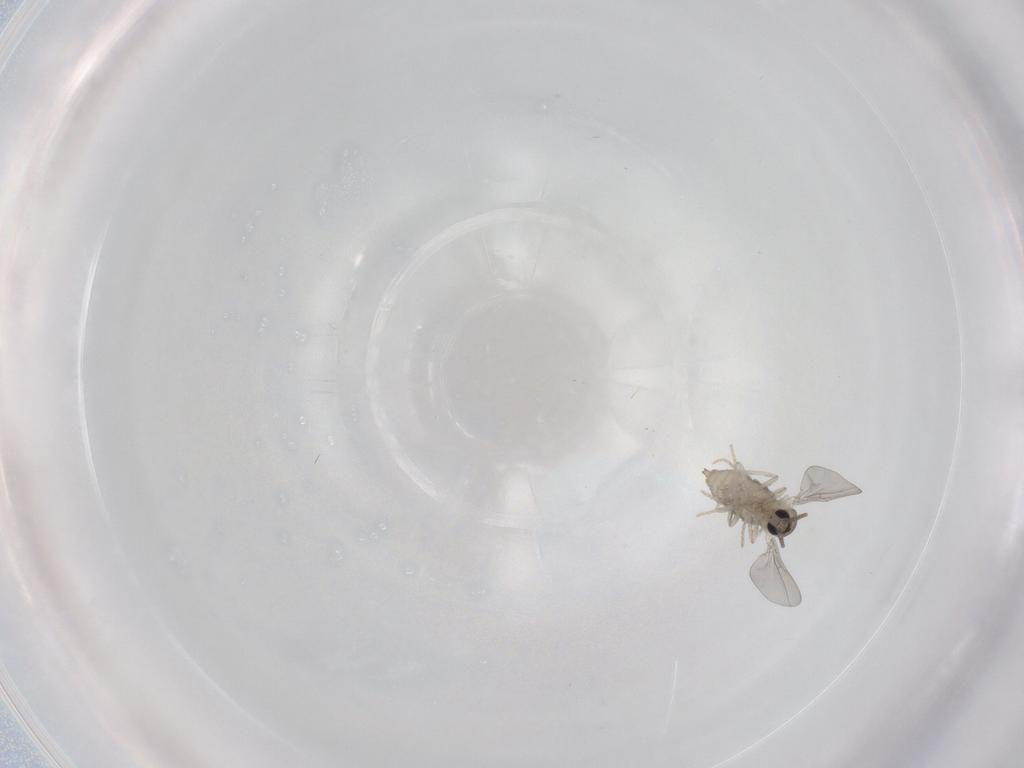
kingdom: Animalia
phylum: Arthropoda
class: Insecta
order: Diptera
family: Cecidomyiidae
